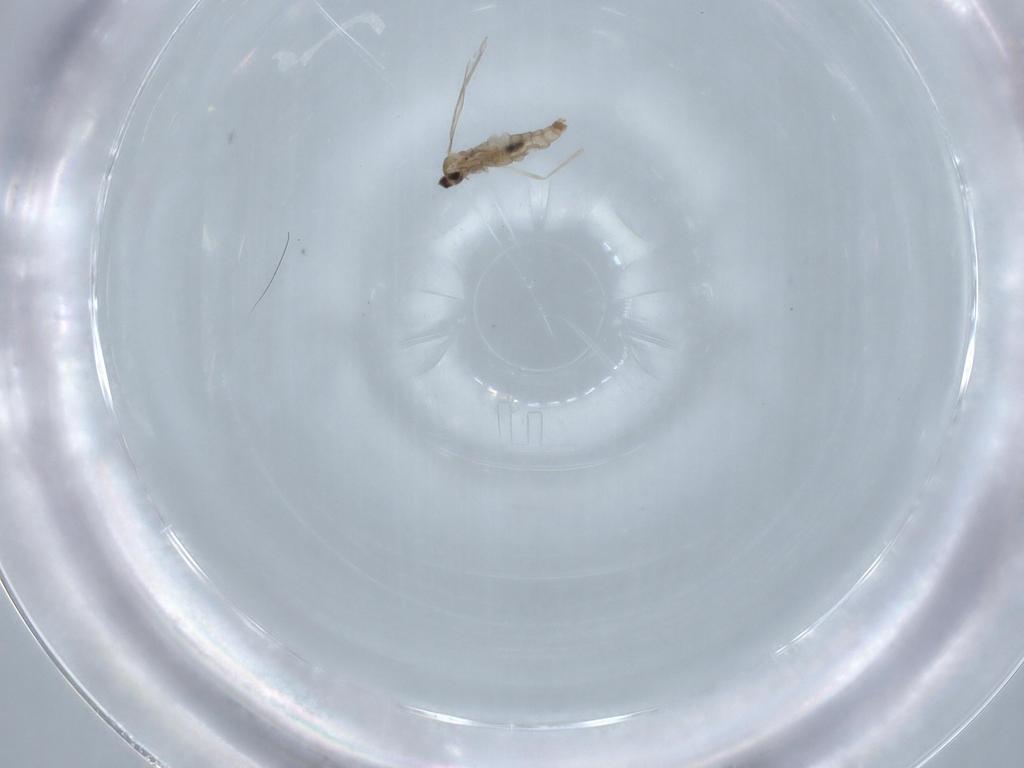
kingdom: Animalia
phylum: Arthropoda
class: Insecta
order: Diptera
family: Cecidomyiidae
